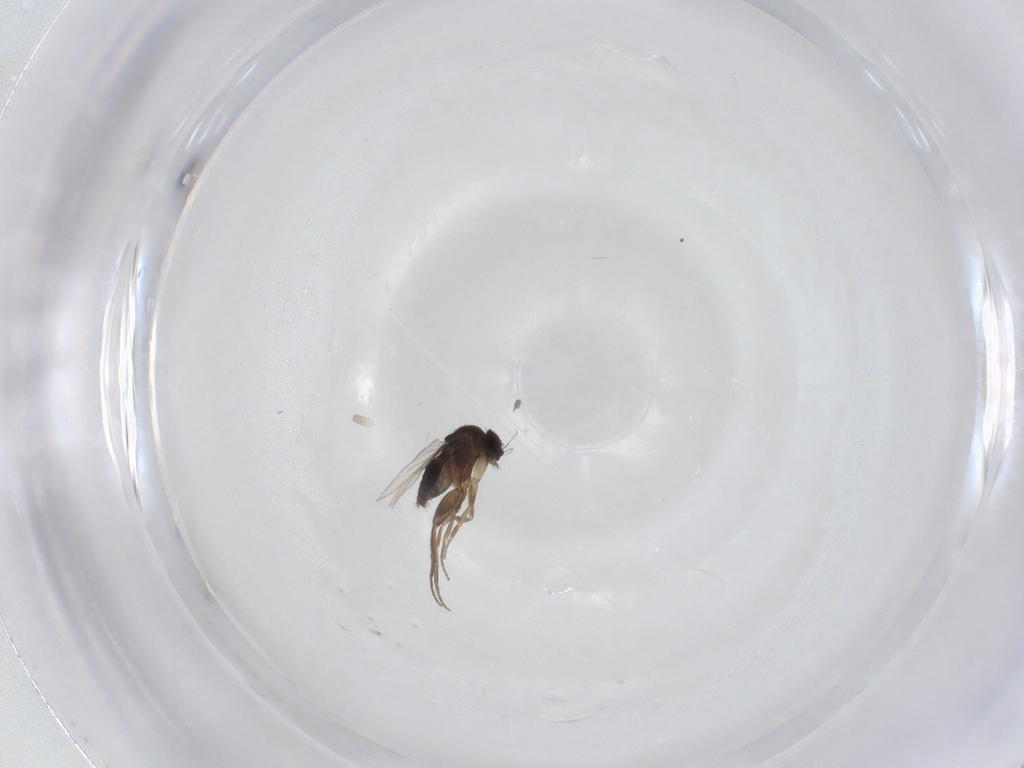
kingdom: Animalia
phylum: Arthropoda
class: Insecta
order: Diptera
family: Phoridae
